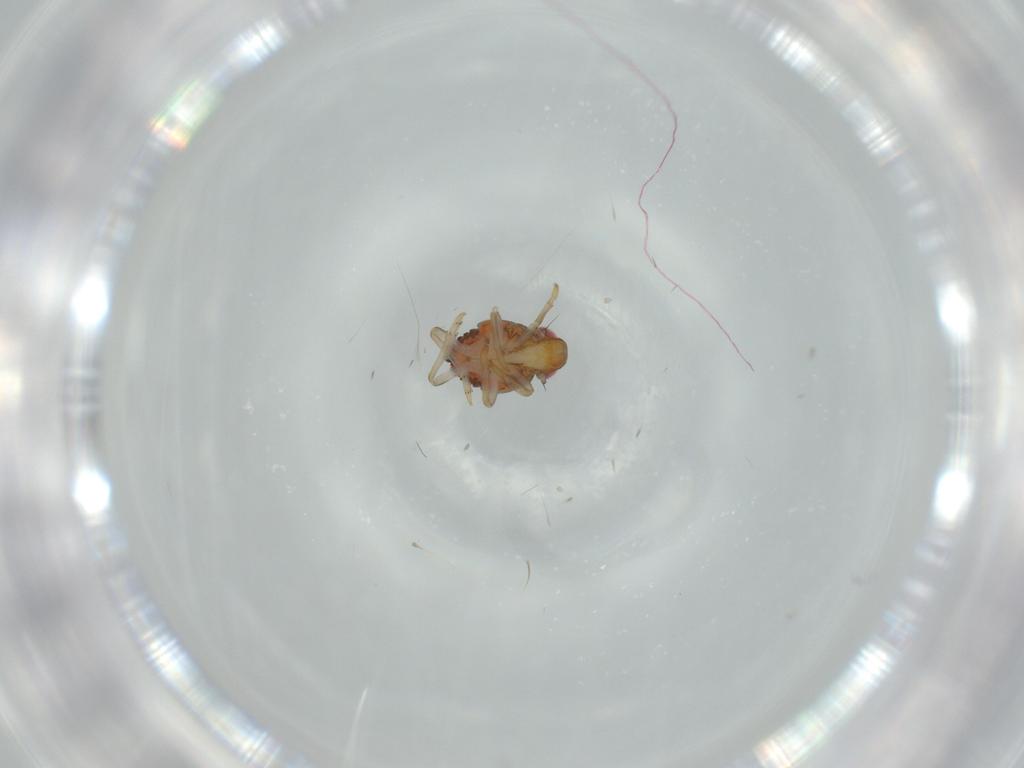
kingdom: Animalia
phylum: Arthropoda
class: Insecta
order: Hemiptera
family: Issidae
